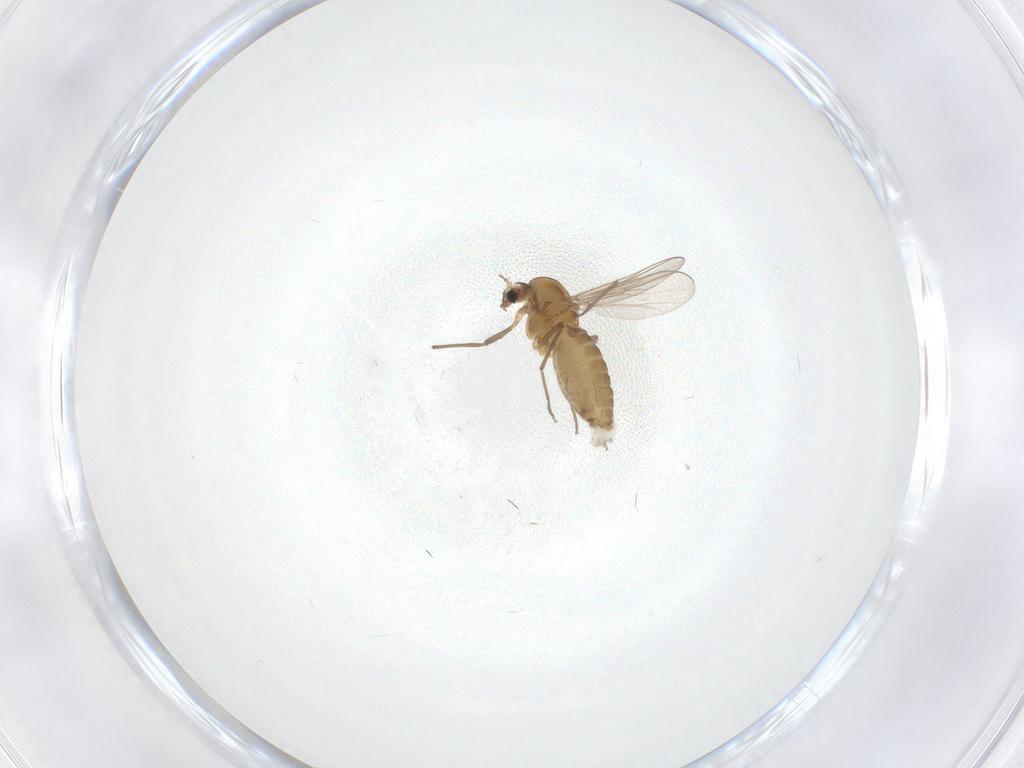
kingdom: Animalia
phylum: Arthropoda
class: Insecta
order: Diptera
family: Chironomidae
